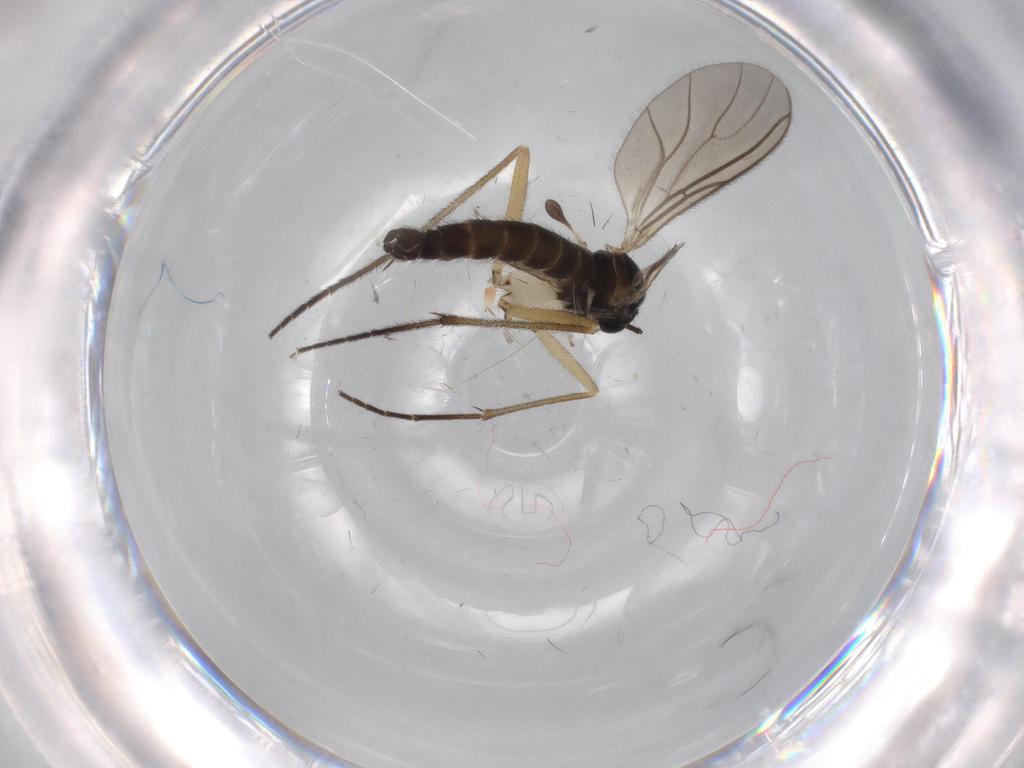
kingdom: Animalia
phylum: Arthropoda
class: Insecta
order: Diptera
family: Sciaridae
